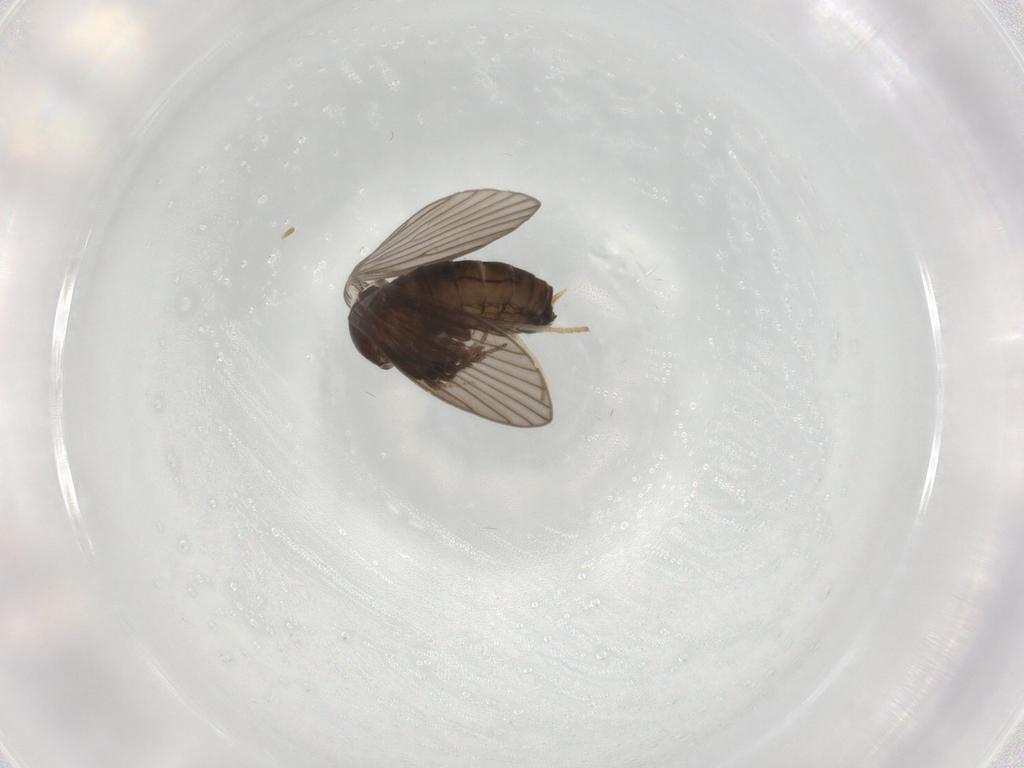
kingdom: Animalia
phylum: Arthropoda
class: Insecta
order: Diptera
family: Psychodidae
